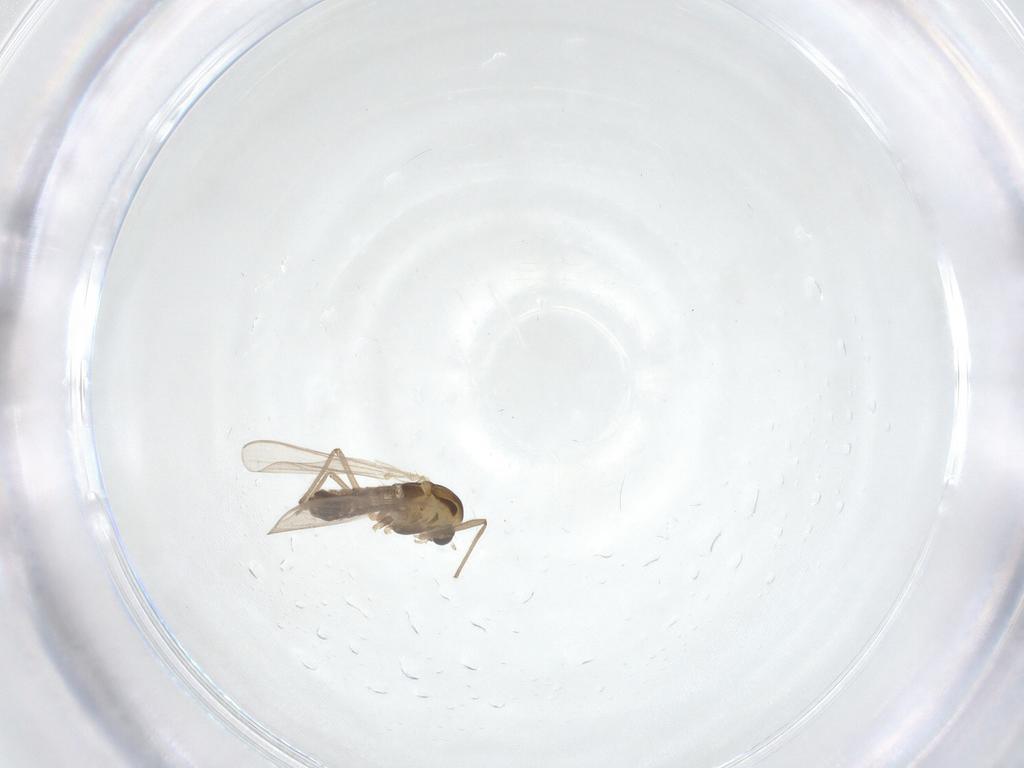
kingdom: Animalia
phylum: Arthropoda
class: Insecta
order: Diptera
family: Chironomidae
